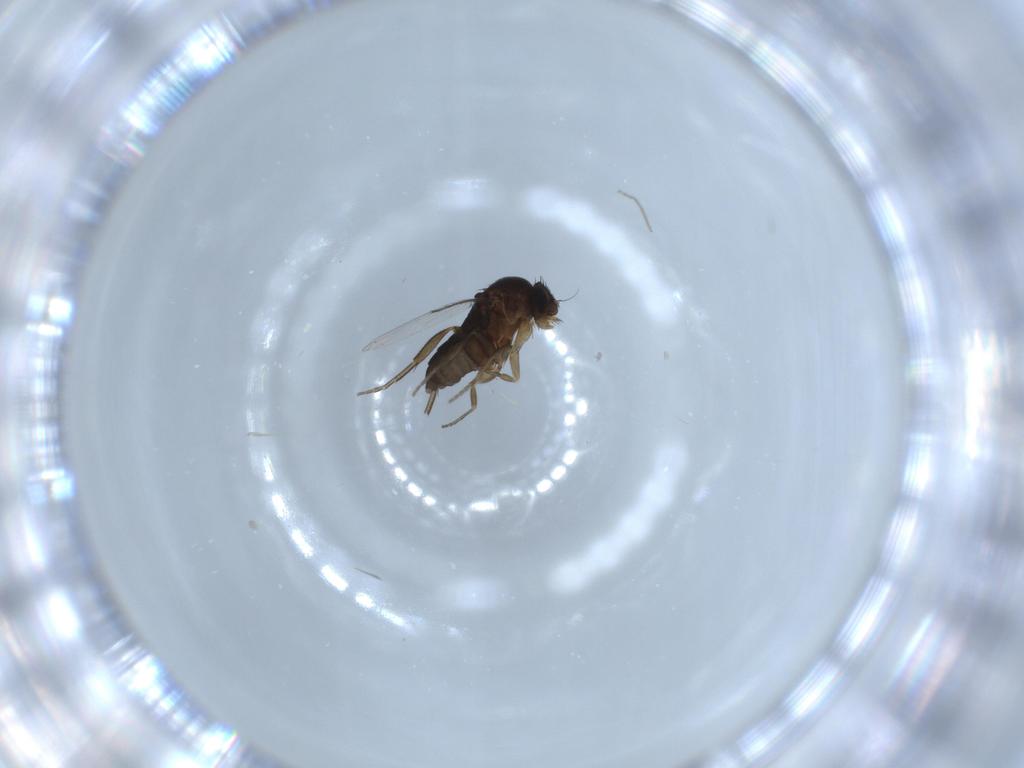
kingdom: Animalia
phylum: Arthropoda
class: Insecta
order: Diptera
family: Phoridae
